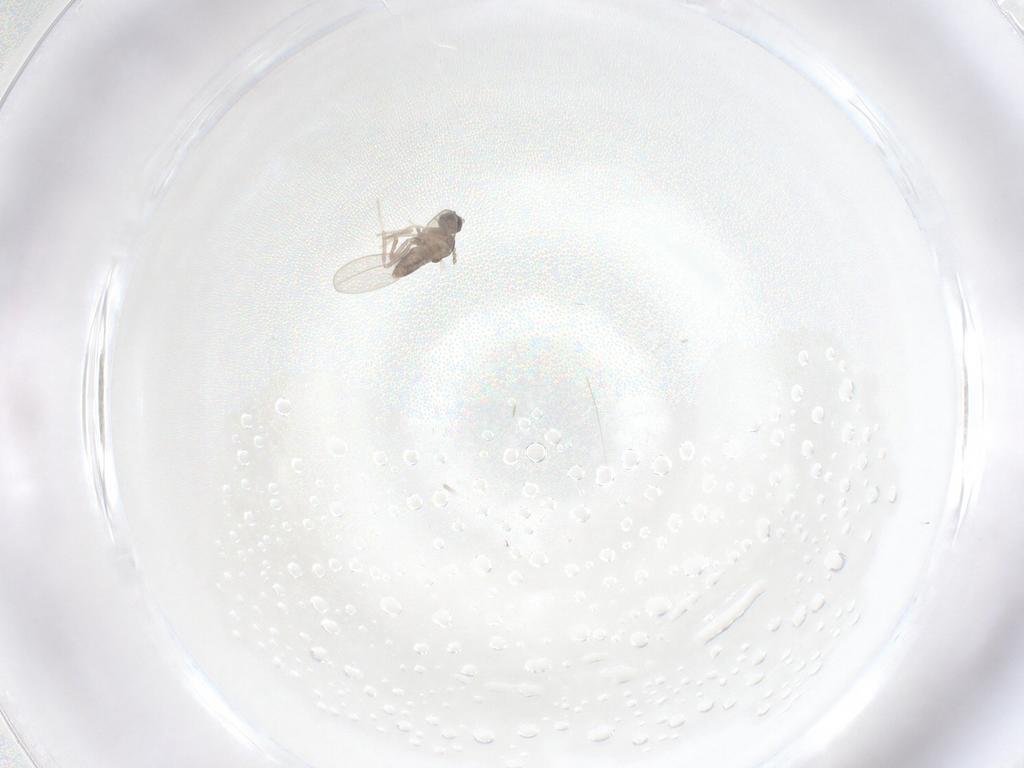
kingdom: Animalia
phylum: Arthropoda
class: Insecta
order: Diptera
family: Cecidomyiidae
